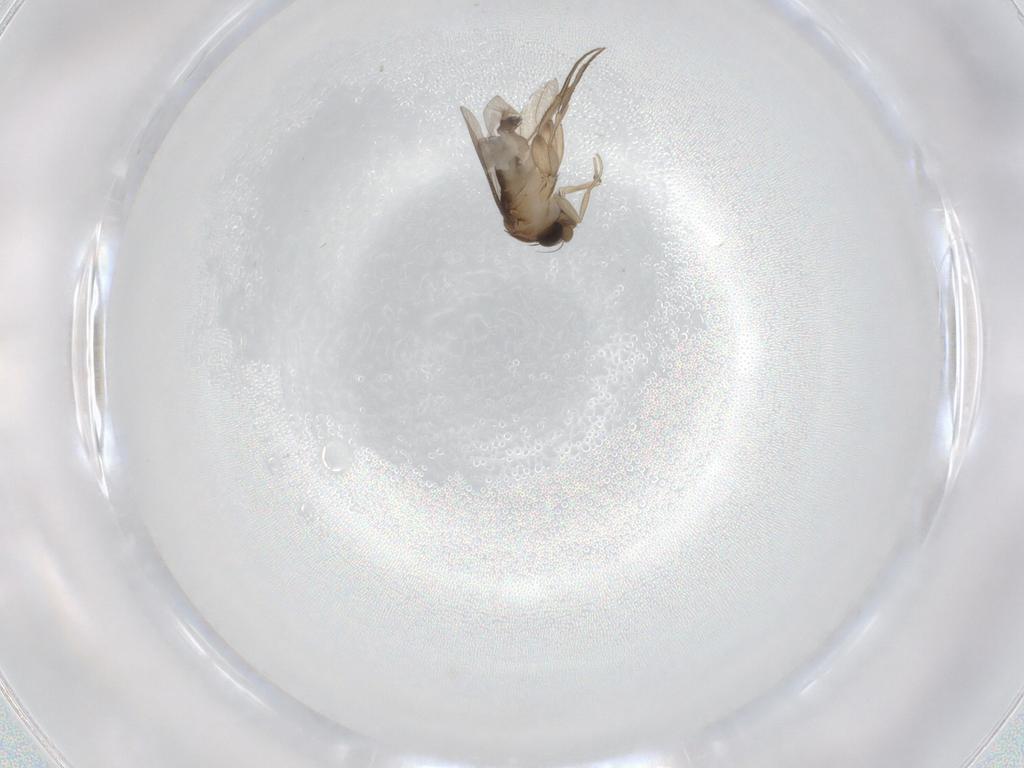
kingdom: Animalia
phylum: Arthropoda
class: Insecta
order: Diptera
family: Phoridae
